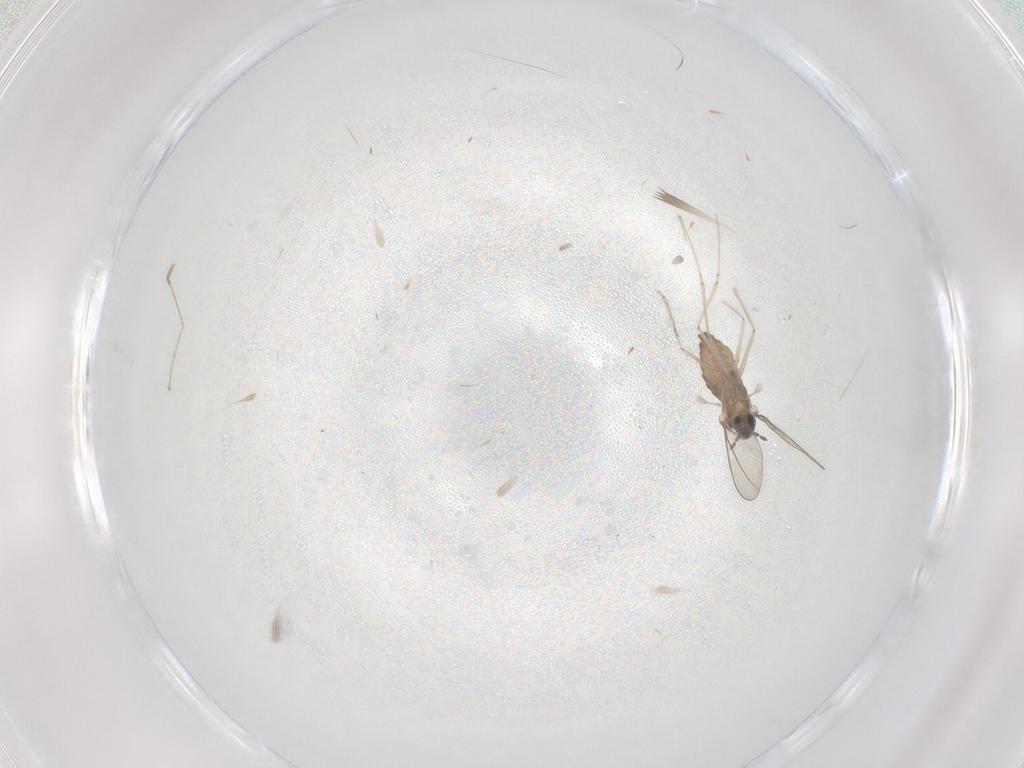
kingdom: Animalia
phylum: Arthropoda
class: Insecta
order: Diptera
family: Cecidomyiidae
